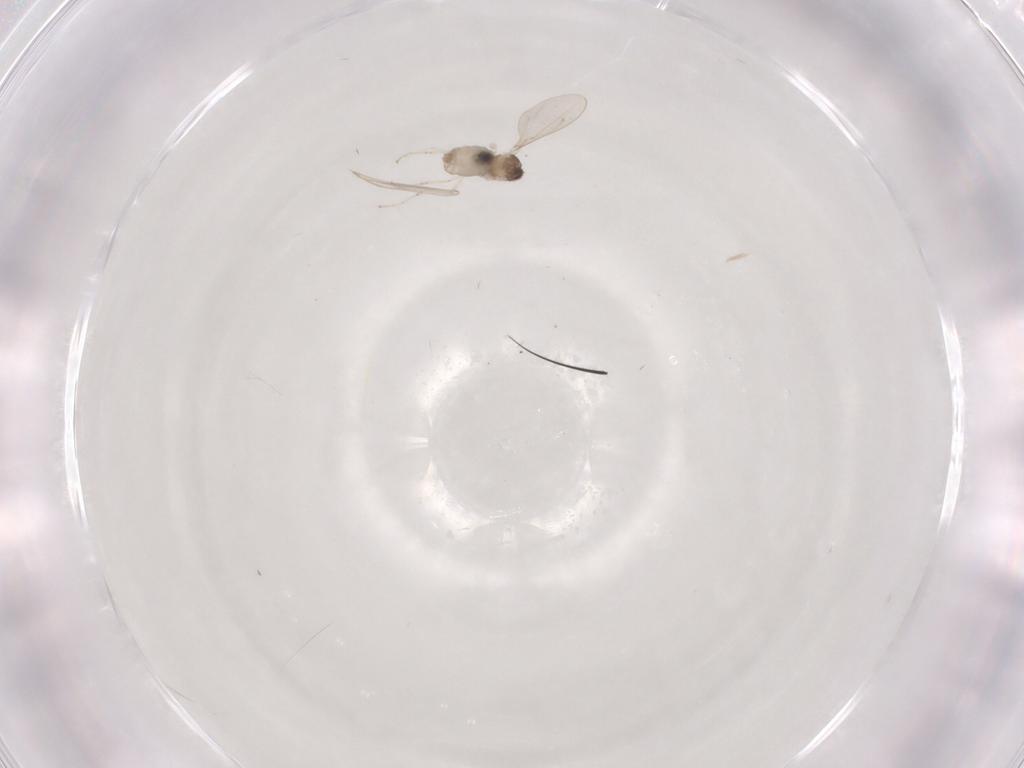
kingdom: Animalia
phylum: Arthropoda
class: Insecta
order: Diptera
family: Cecidomyiidae
